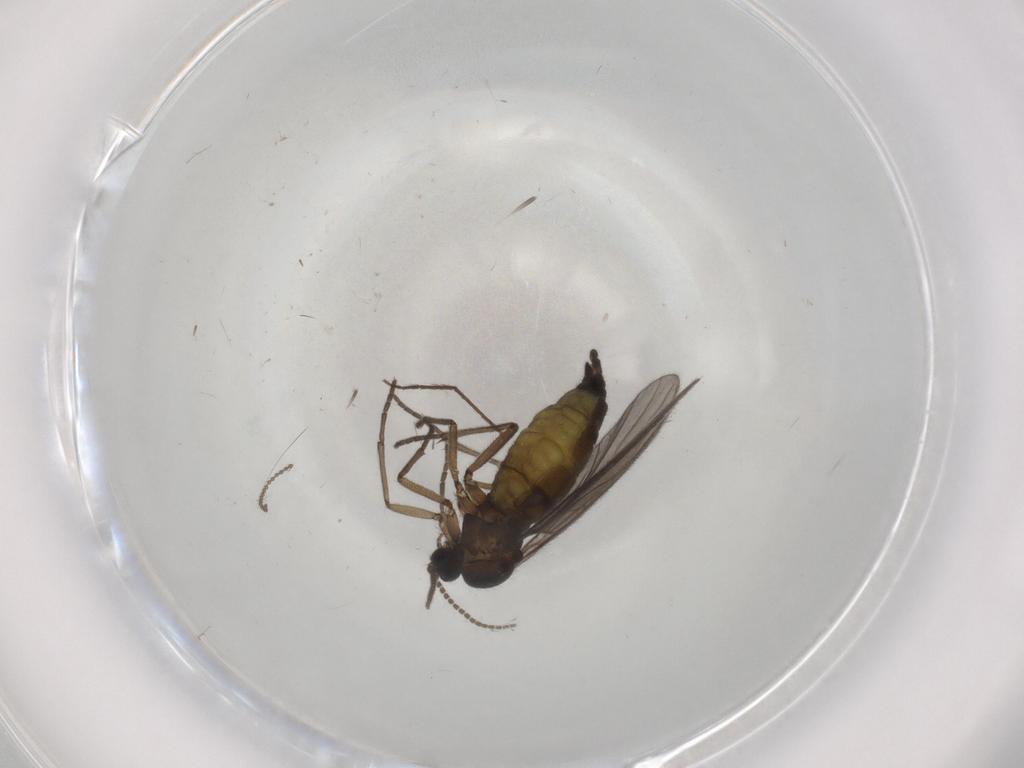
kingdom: Animalia
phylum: Arthropoda
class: Insecta
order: Diptera
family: Sciaridae
